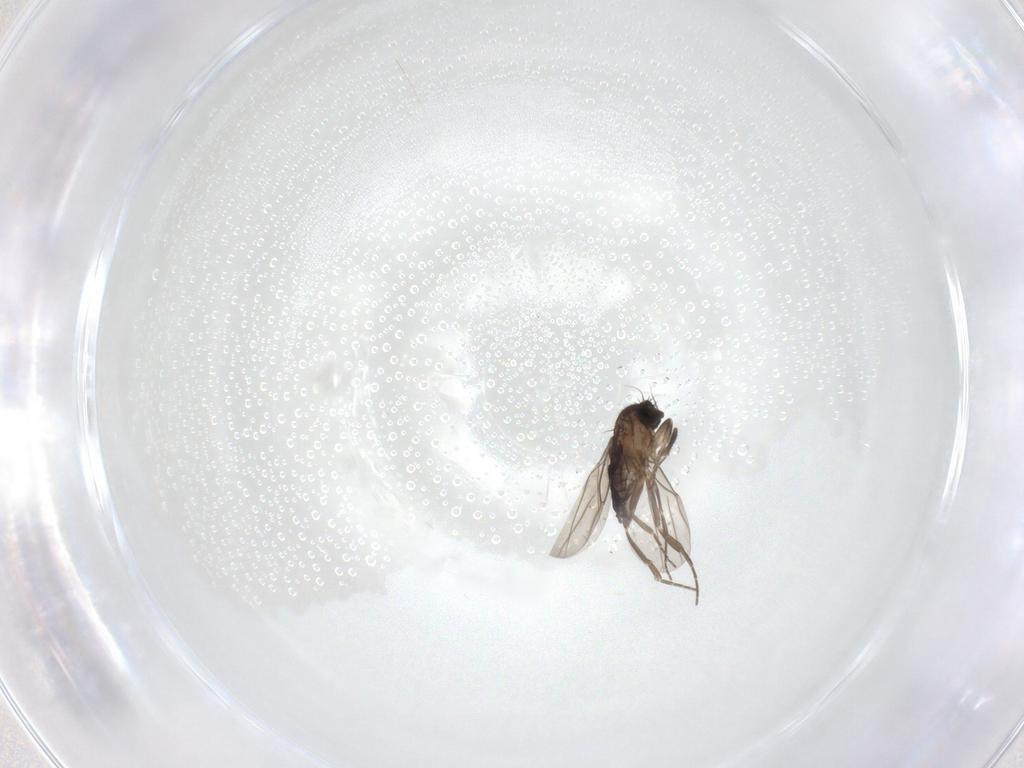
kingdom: Animalia
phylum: Arthropoda
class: Insecta
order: Diptera
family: Phoridae
